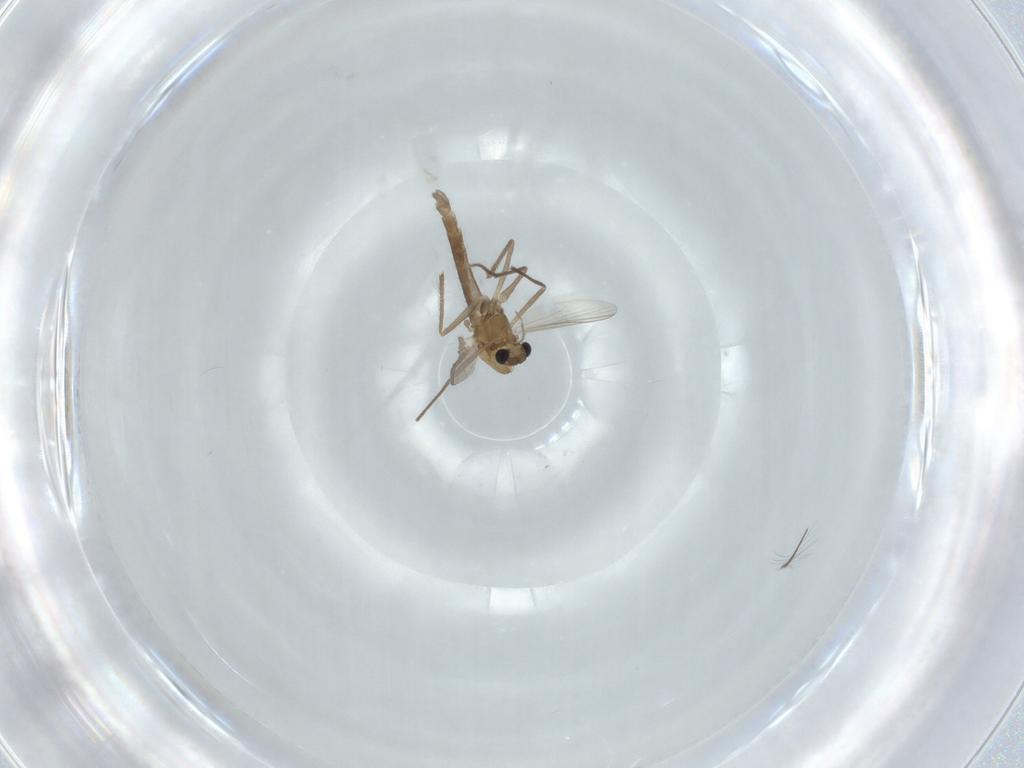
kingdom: Animalia
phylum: Arthropoda
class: Insecta
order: Diptera
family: Chironomidae
